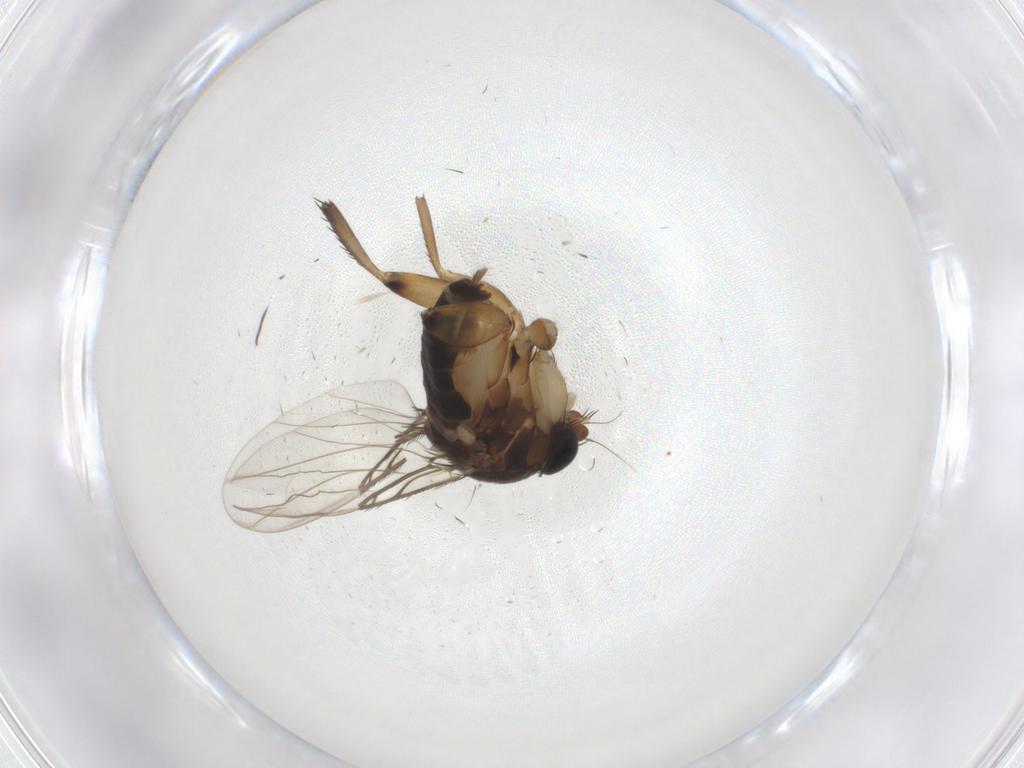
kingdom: Animalia
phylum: Arthropoda
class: Insecta
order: Diptera
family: Phoridae
